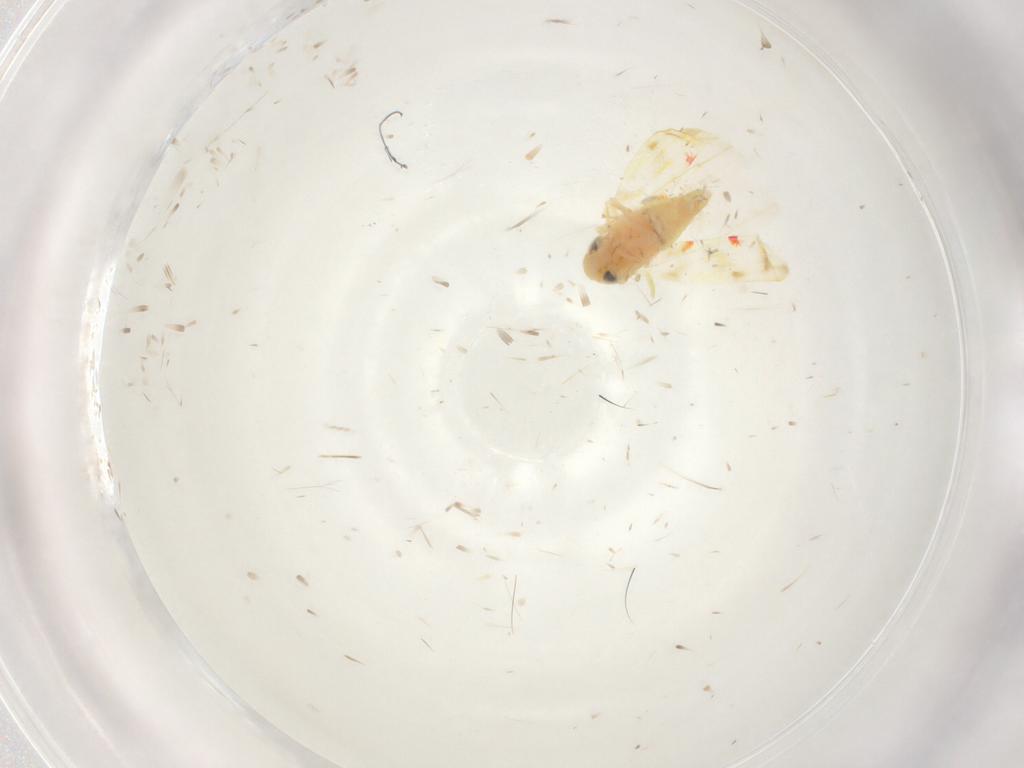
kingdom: Animalia
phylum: Arthropoda
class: Insecta
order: Hemiptera
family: Cicadellidae
